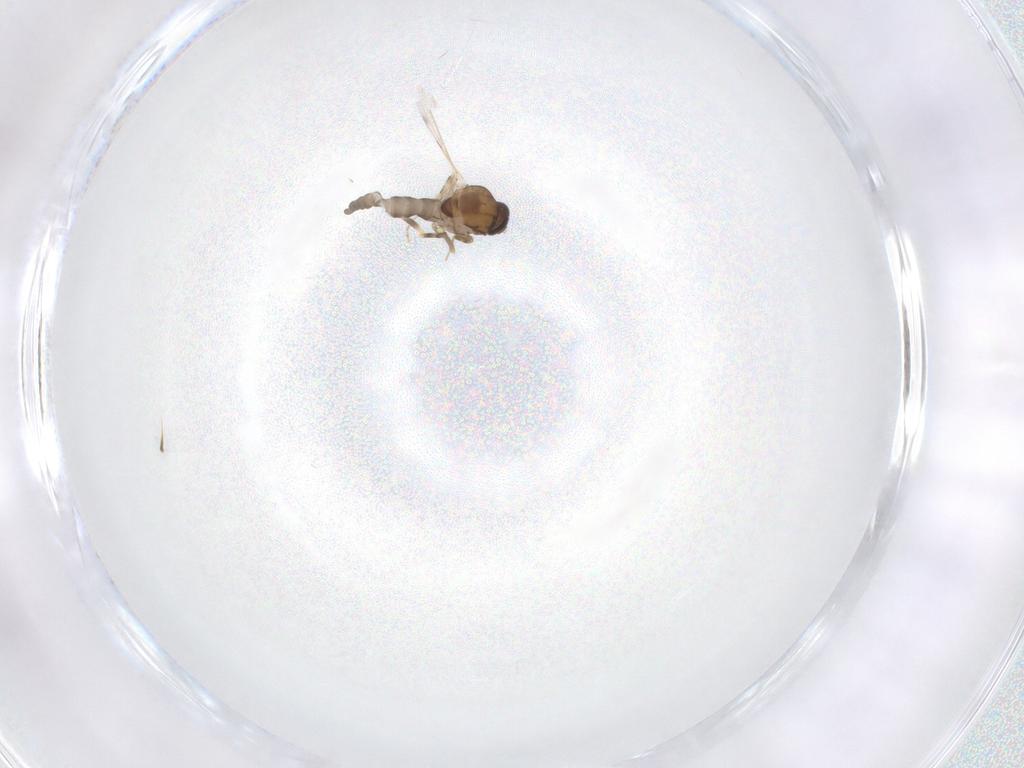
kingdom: Animalia
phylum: Arthropoda
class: Insecta
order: Diptera
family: Ceratopogonidae
